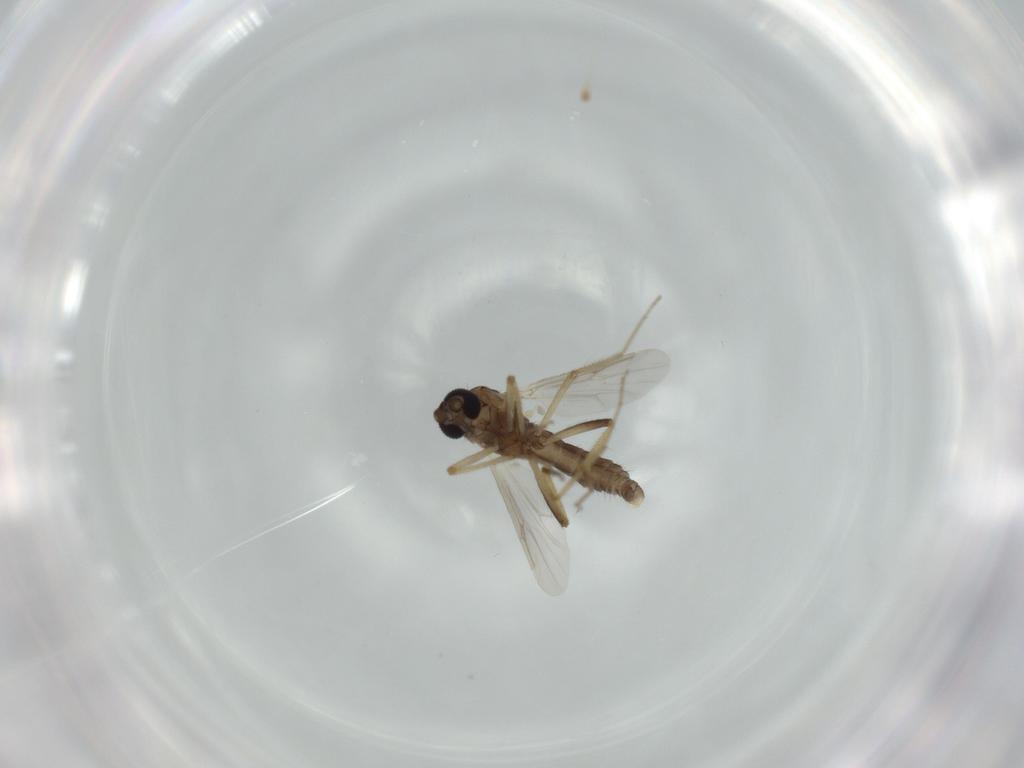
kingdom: Animalia
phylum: Arthropoda
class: Insecta
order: Diptera
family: Ceratopogonidae
